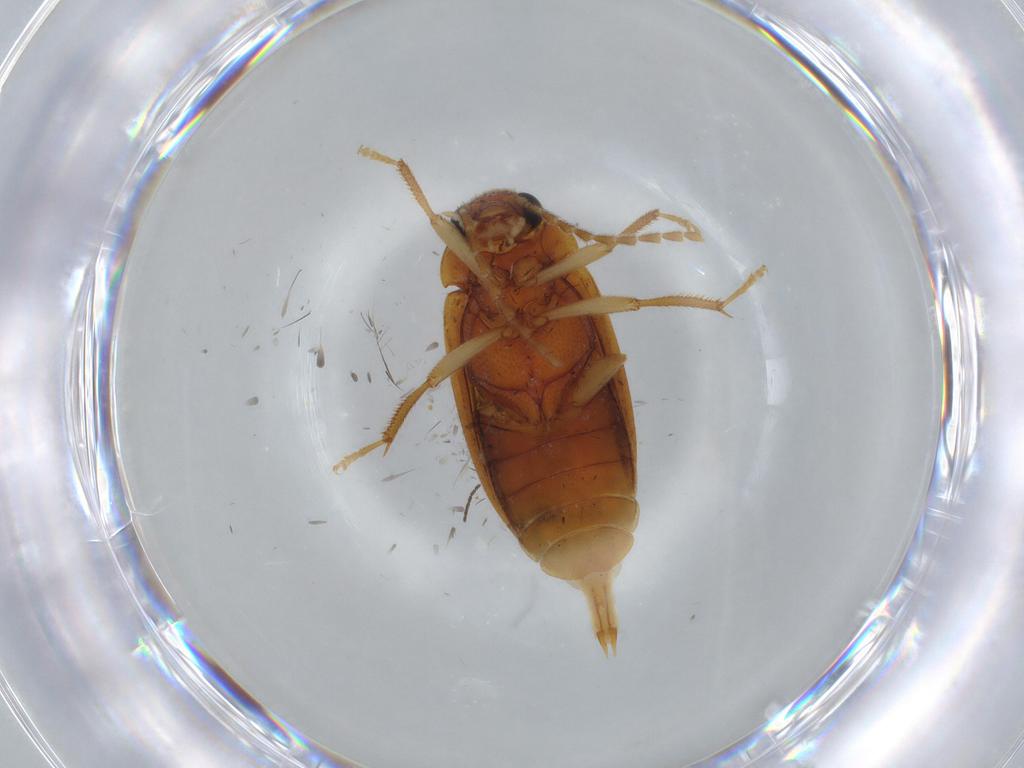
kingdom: Animalia
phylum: Arthropoda
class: Insecta
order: Coleoptera
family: Ptilodactylidae
